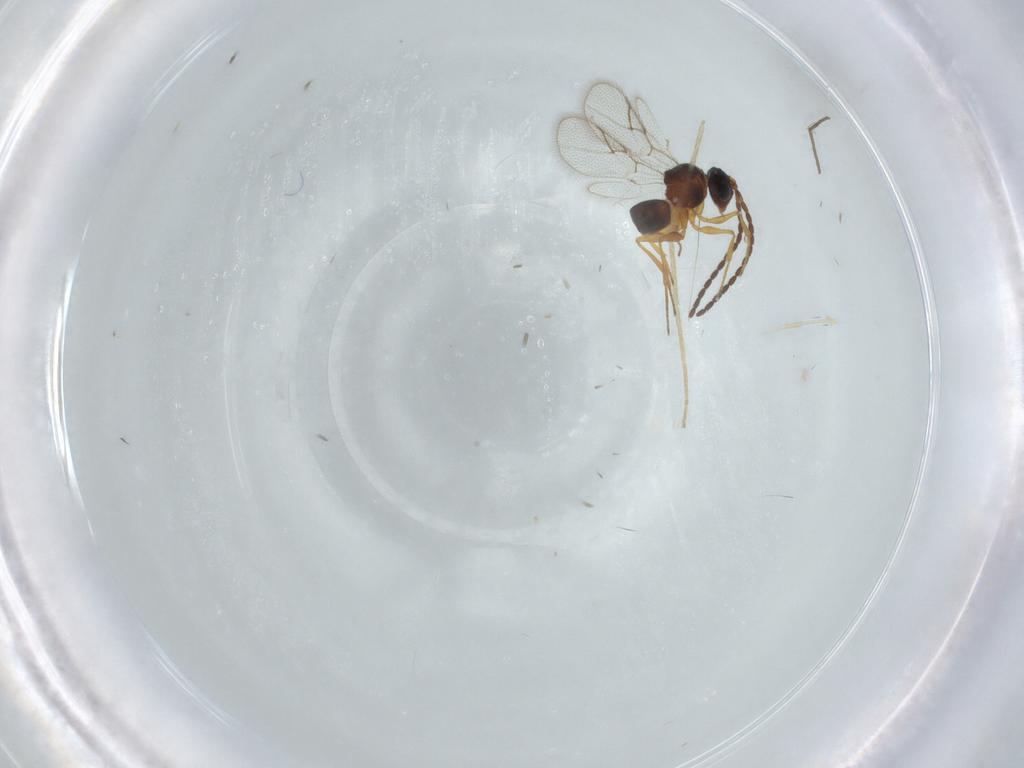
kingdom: Animalia
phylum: Arthropoda
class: Insecta
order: Hymenoptera
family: Figitidae
